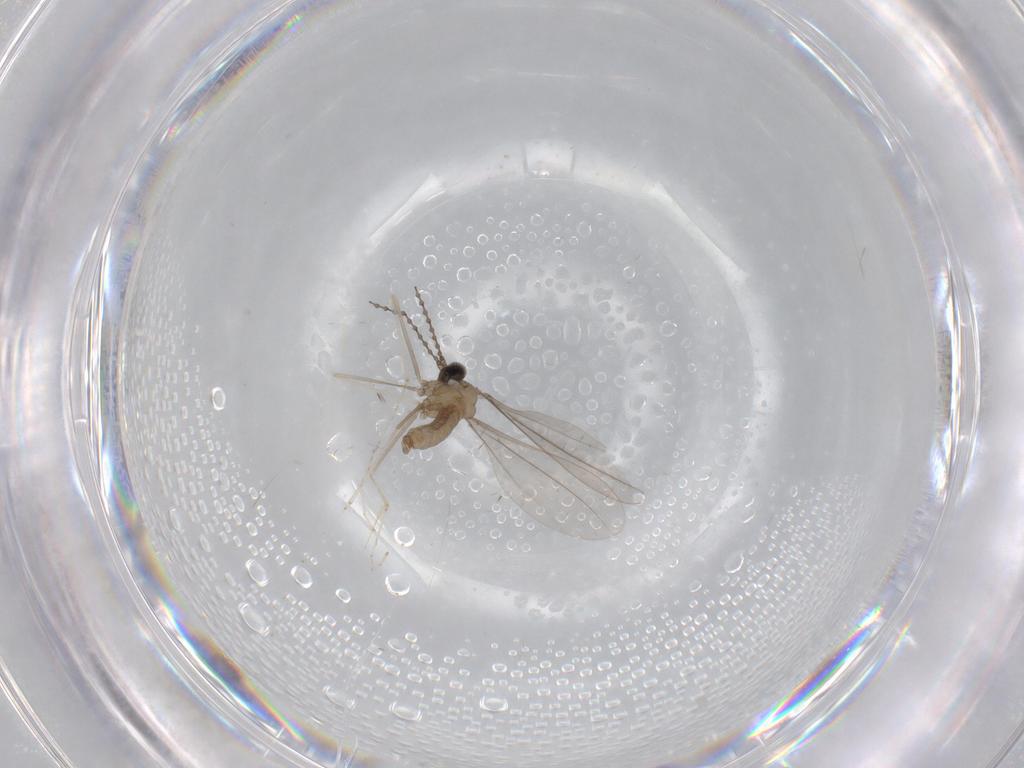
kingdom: Animalia
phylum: Arthropoda
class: Insecta
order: Diptera
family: Cecidomyiidae
